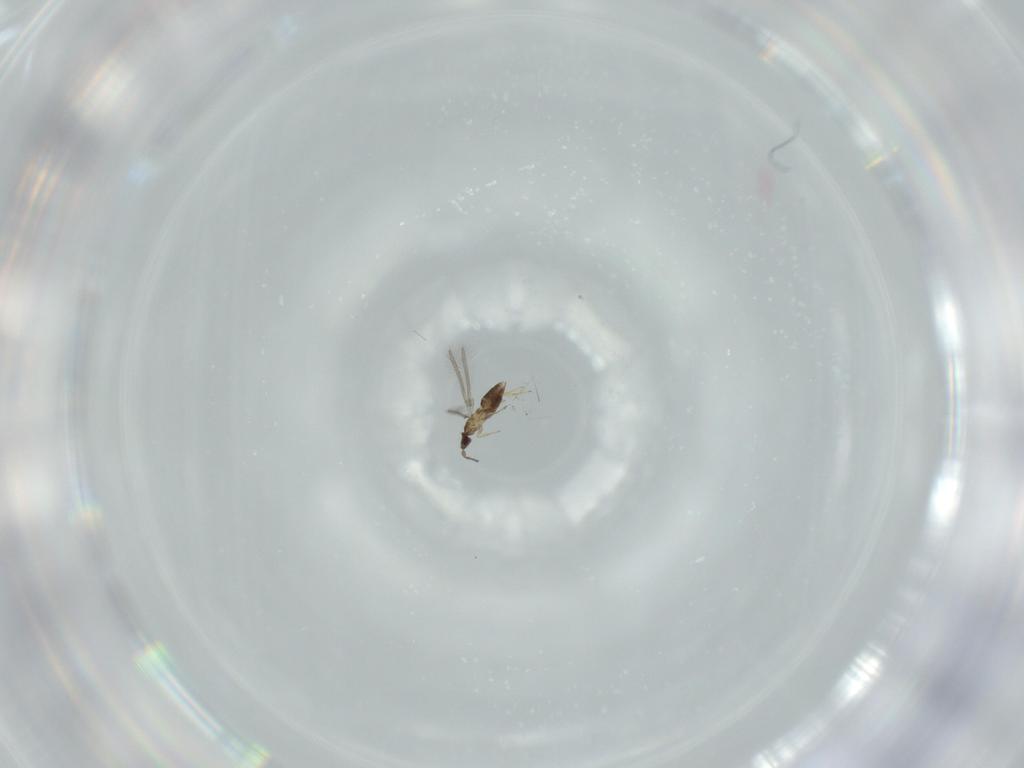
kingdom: Animalia
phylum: Arthropoda
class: Insecta
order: Hymenoptera
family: Mymaridae
